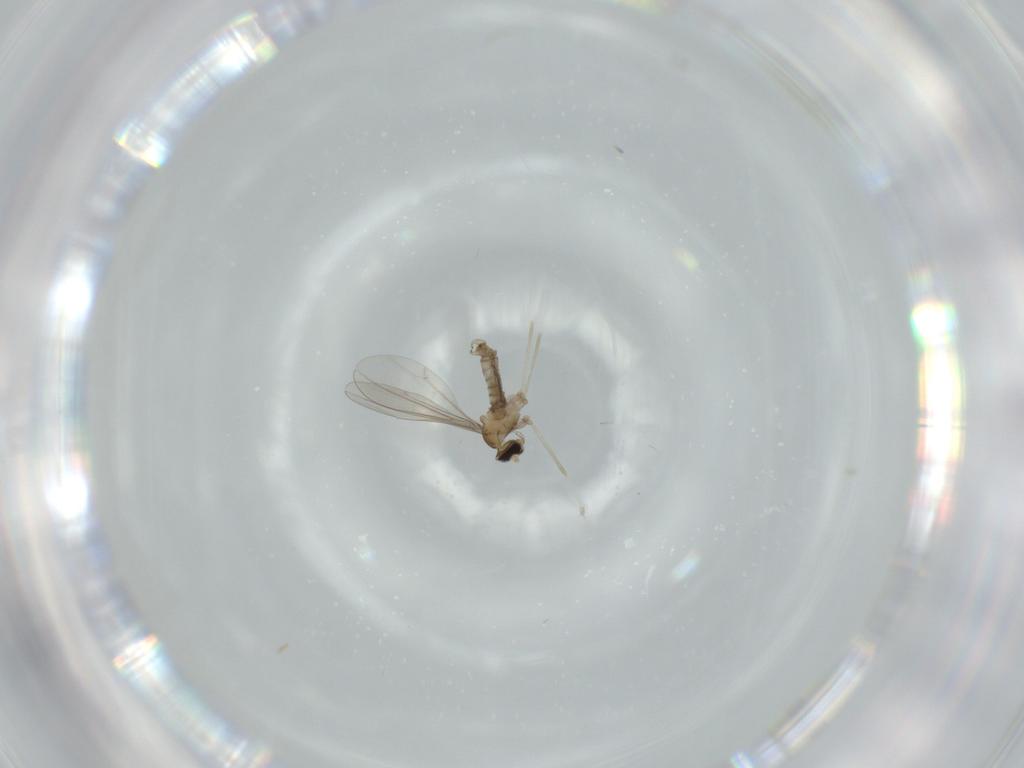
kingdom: Animalia
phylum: Arthropoda
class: Insecta
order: Diptera
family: Cecidomyiidae
